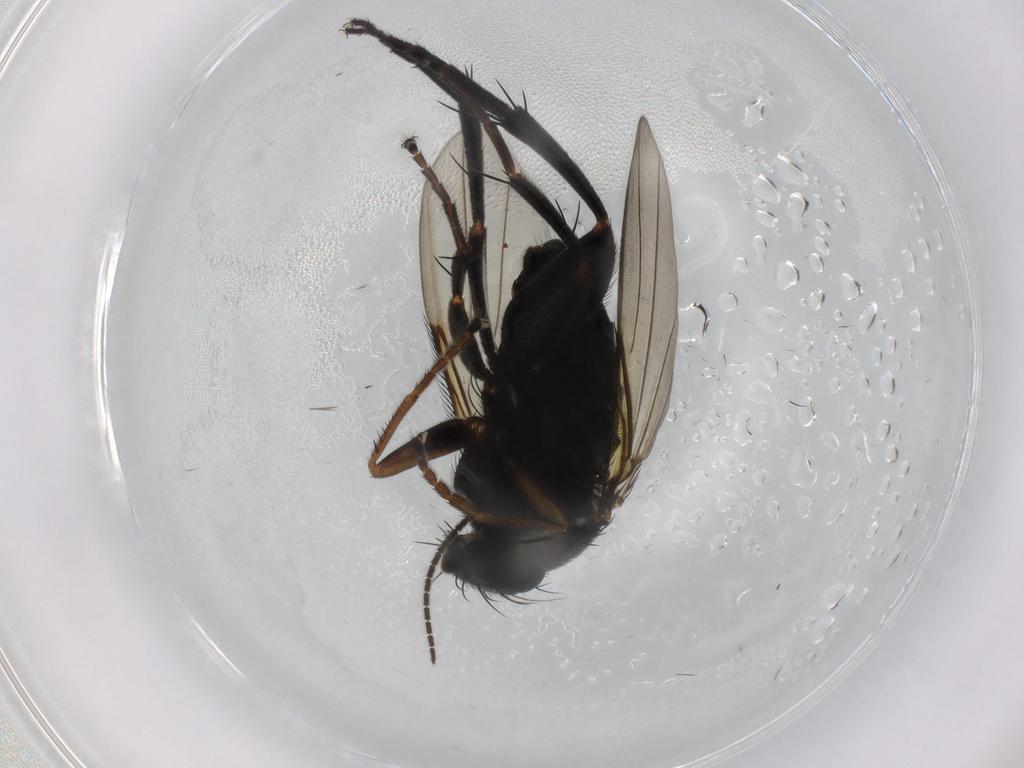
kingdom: Animalia
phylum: Arthropoda
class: Insecta
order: Diptera
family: Phoridae
